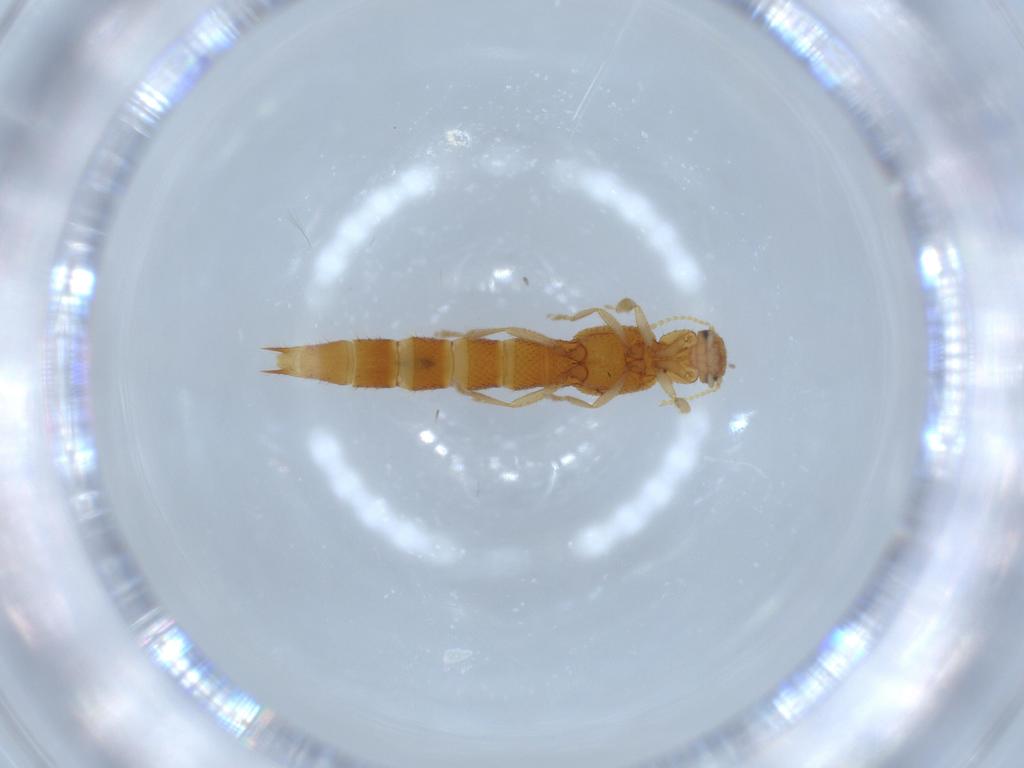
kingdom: Animalia
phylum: Arthropoda
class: Insecta
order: Coleoptera
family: Staphylinidae
